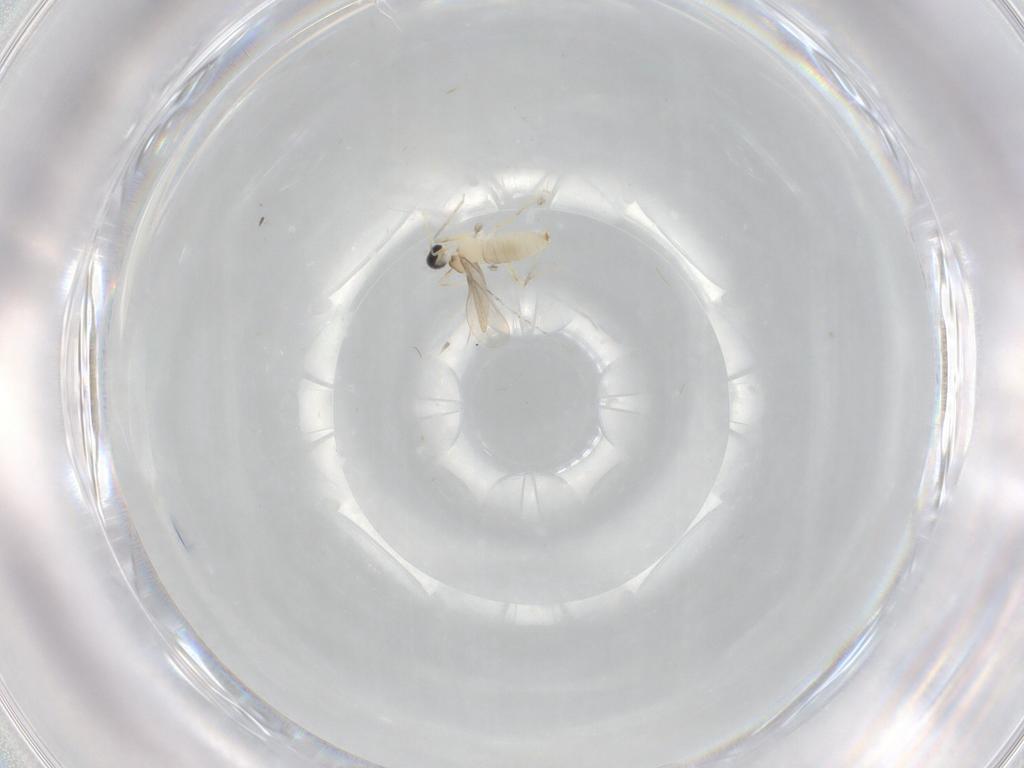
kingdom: Animalia
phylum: Arthropoda
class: Insecta
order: Diptera
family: Cecidomyiidae
